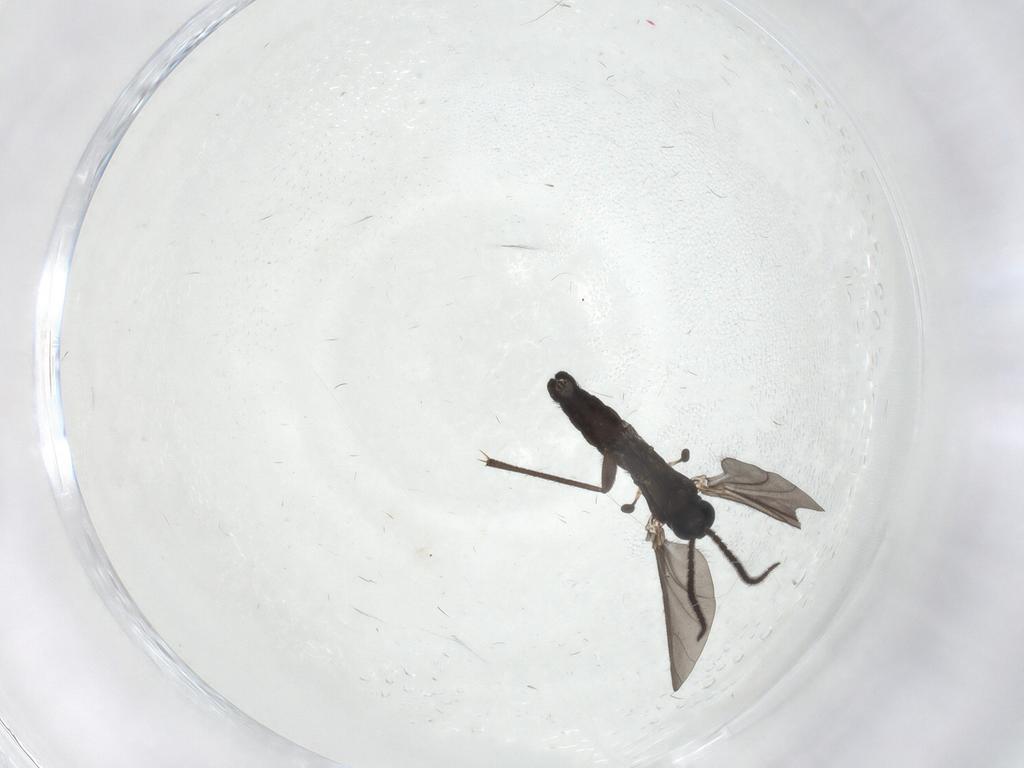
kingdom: Animalia
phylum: Arthropoda
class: Insecta
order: Diptera
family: Sciaridae
